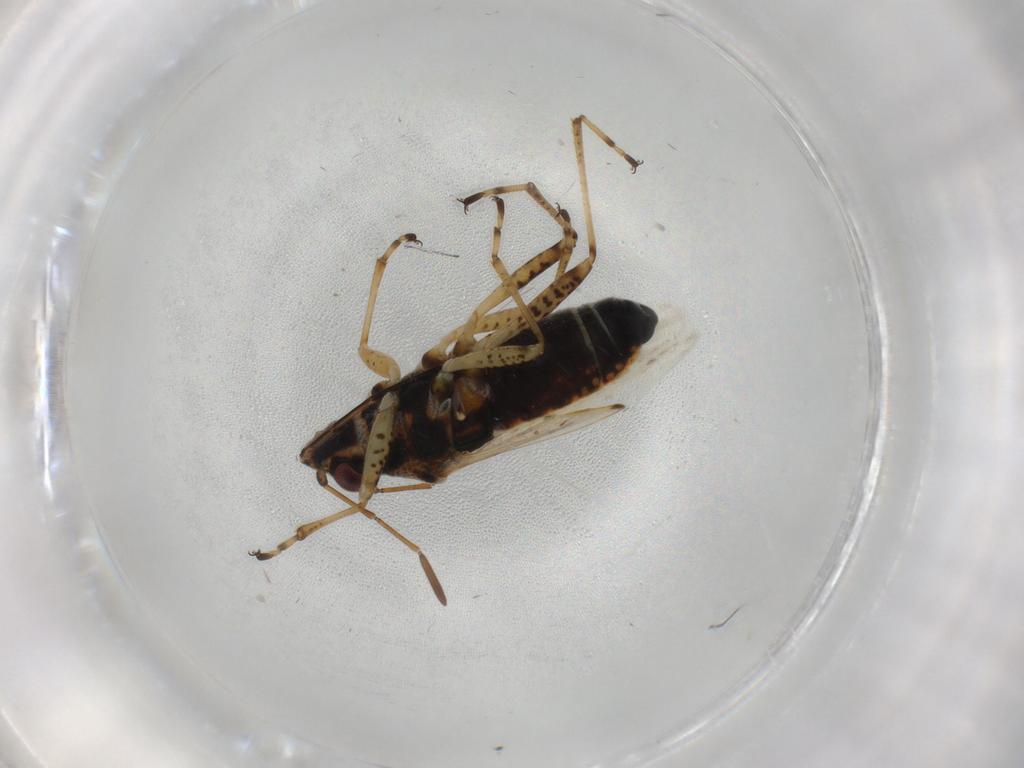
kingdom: Animalia
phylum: Arthropoda
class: Insecta
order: Hemiptera
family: Lygaeidae
